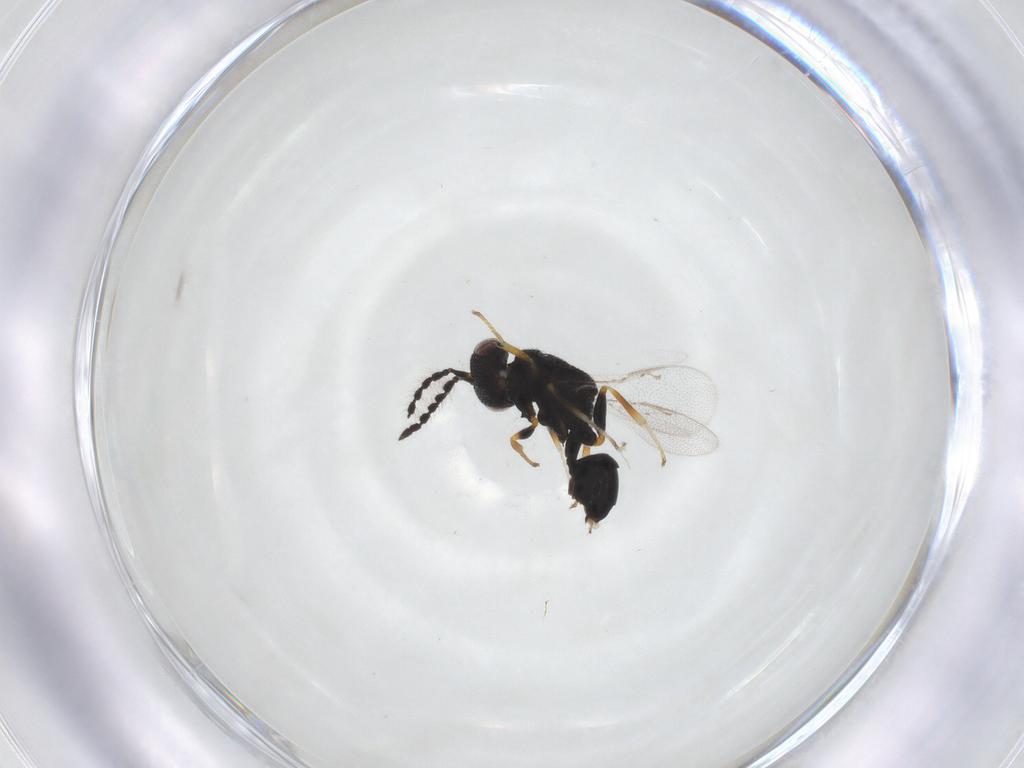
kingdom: Animalia
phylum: Arthropoda
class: Insecta
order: Hymenoptera
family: Eurytomidae
